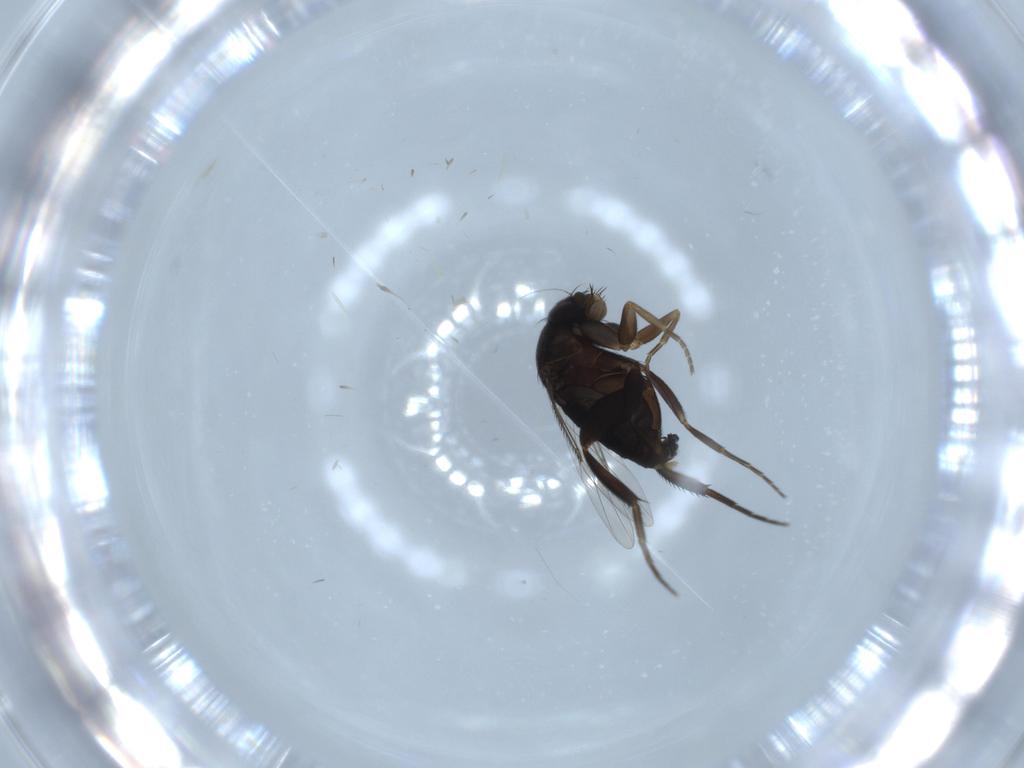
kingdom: Animalia
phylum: Arthropoda
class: Insecta
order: Diptera
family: Phoridae
